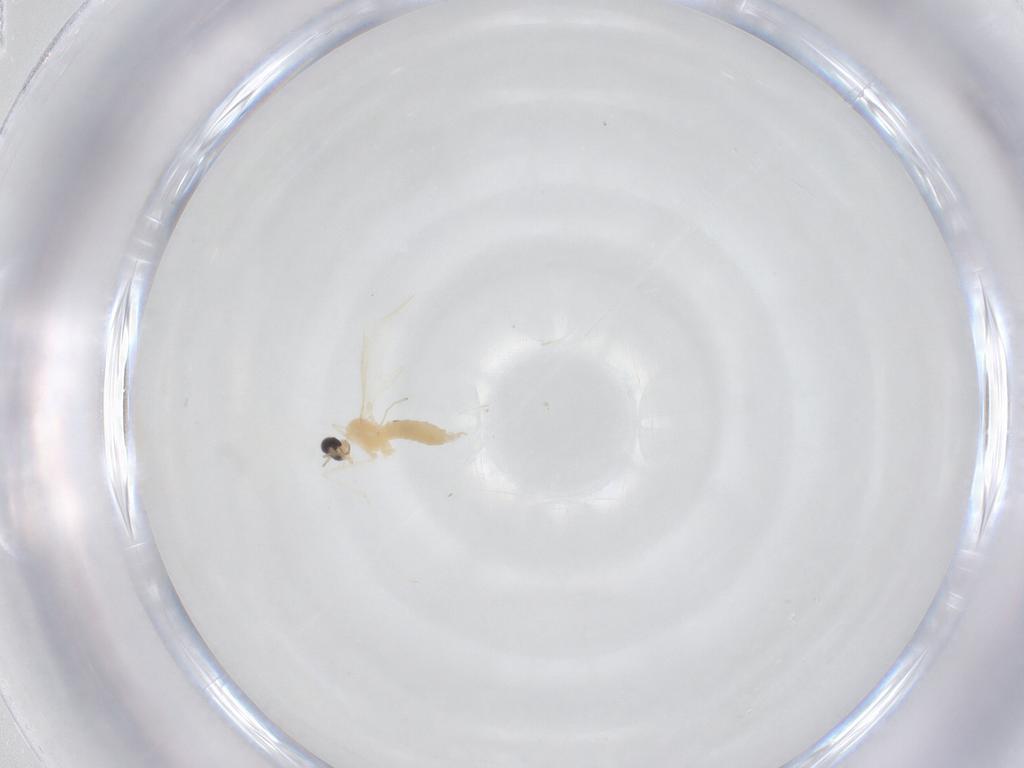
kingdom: Animalia
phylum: Arthropoda
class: Insecta
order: Diptera
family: Cecidomyiidae
